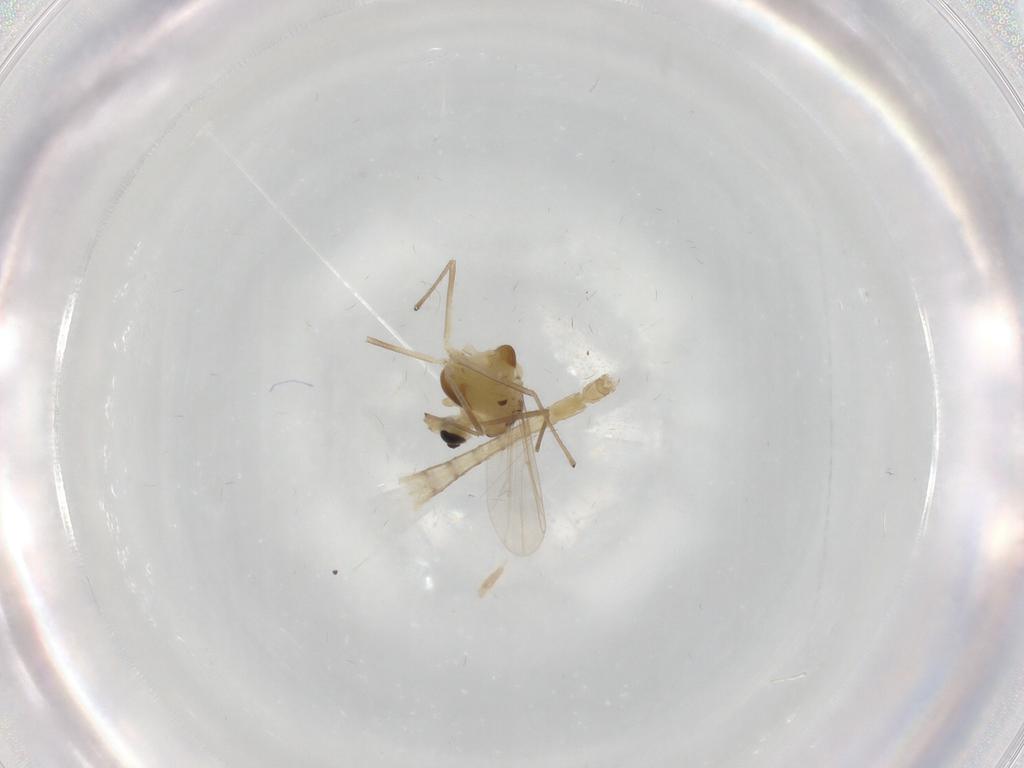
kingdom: Animalia
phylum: Arthropoda
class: Insecta
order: Diptera
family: Chironomidae
